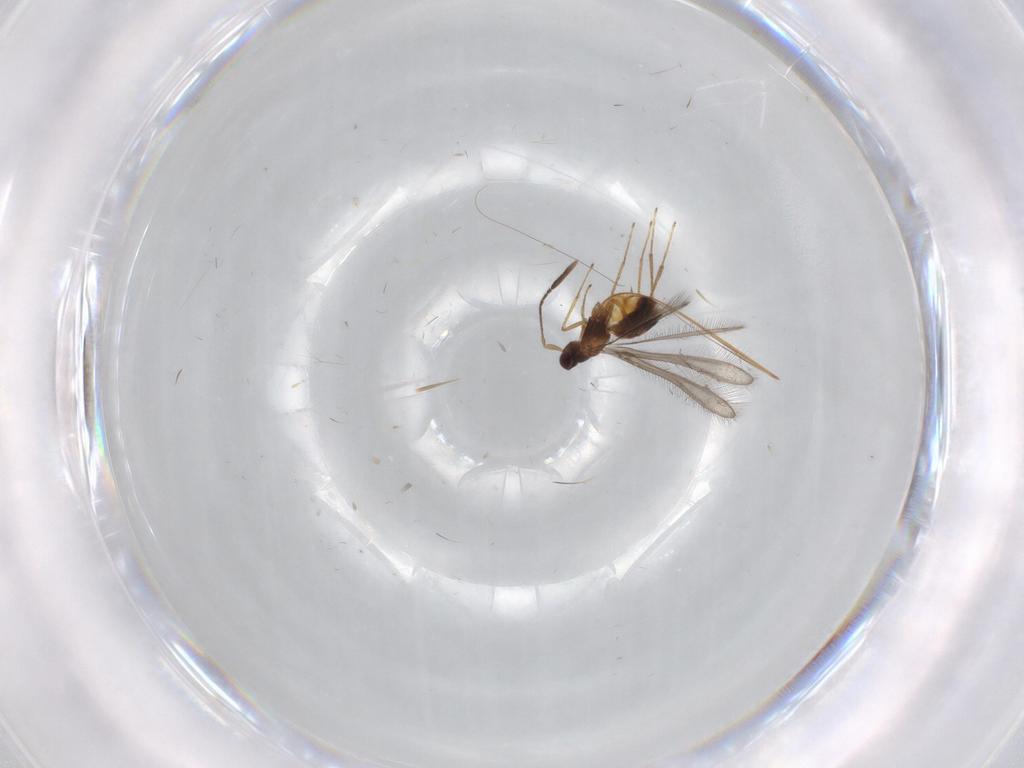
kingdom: Animalia
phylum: Arthropoda
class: Insecta
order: Hymenoptera
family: Mymaridae
